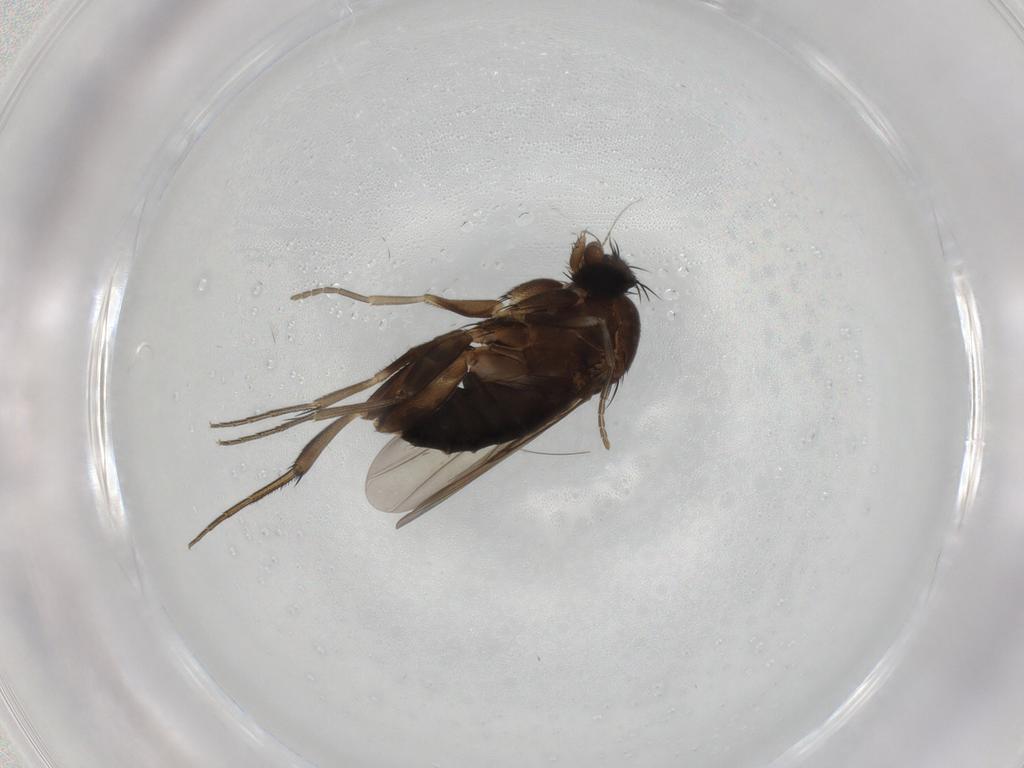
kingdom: Animalia
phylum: Arthropoda
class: Insecta
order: Diptera
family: Phoridae
